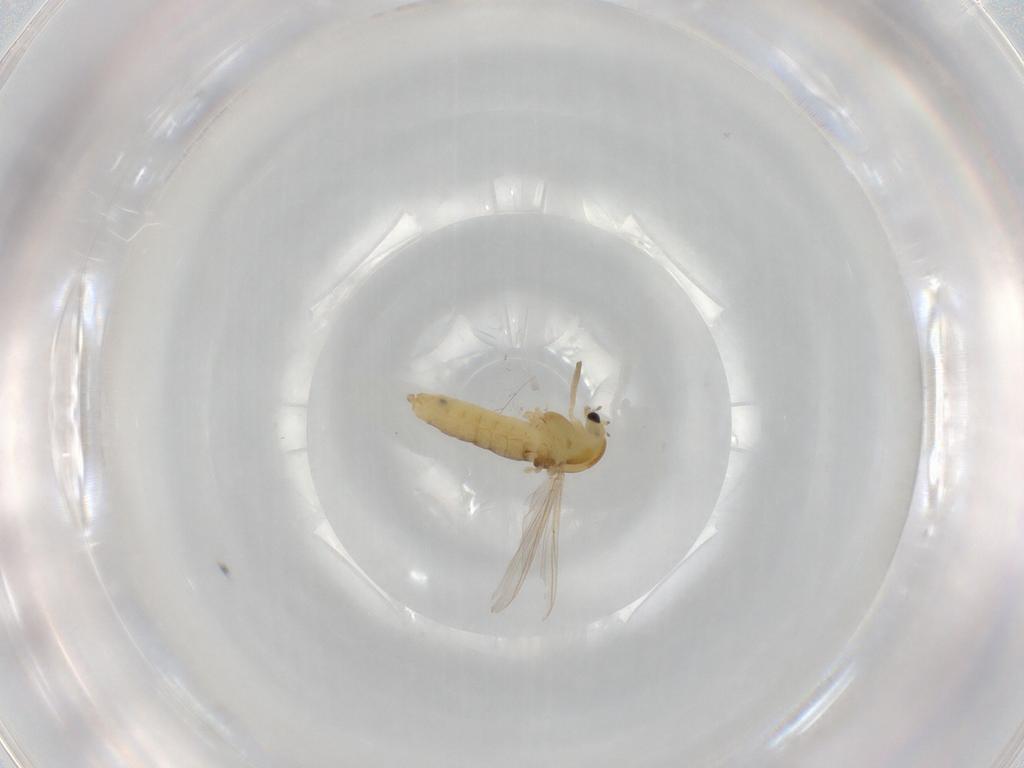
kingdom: Animalia
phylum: Arthropoda
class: Insecta
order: Diptera
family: Chironomidae
